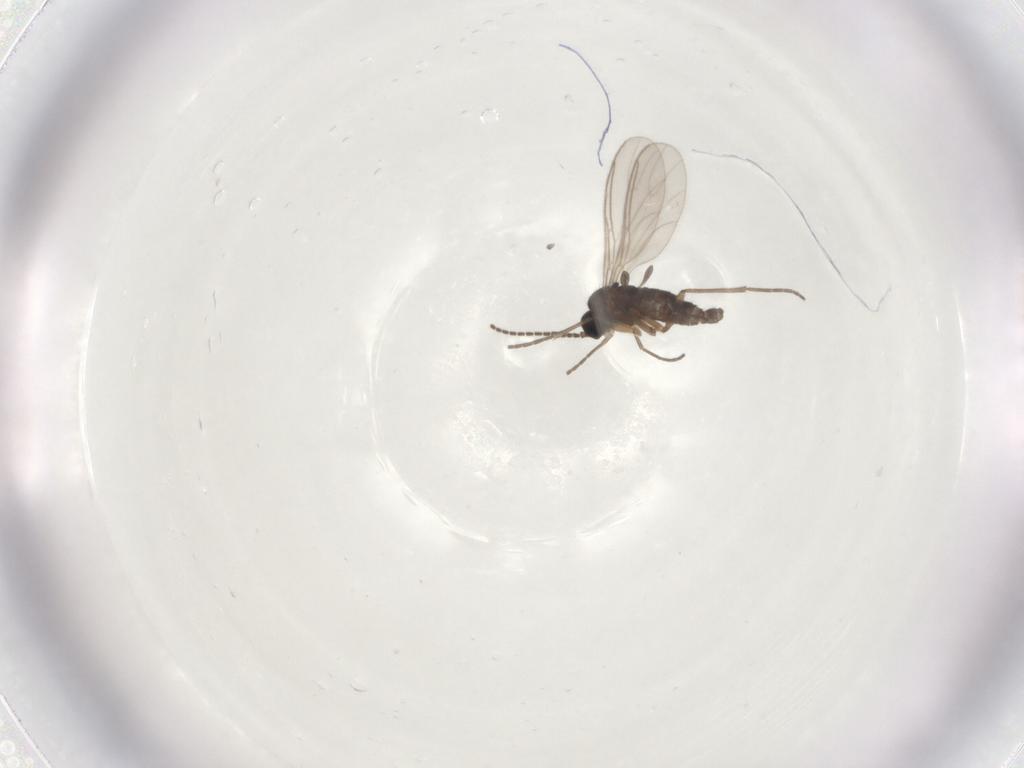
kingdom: Animalia
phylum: Arthropoda
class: Insecta
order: Diptera
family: Sciaridae
